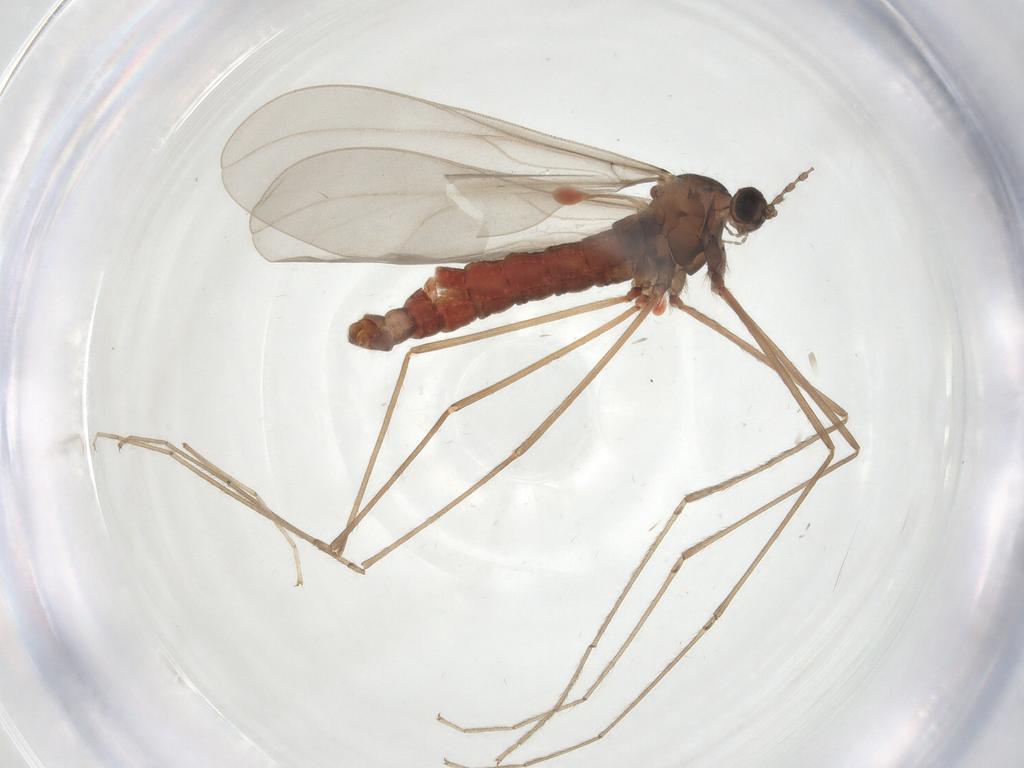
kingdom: Animalia
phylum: Arthropoda
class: Insecta
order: Diptera
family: Cecidomyiidae
